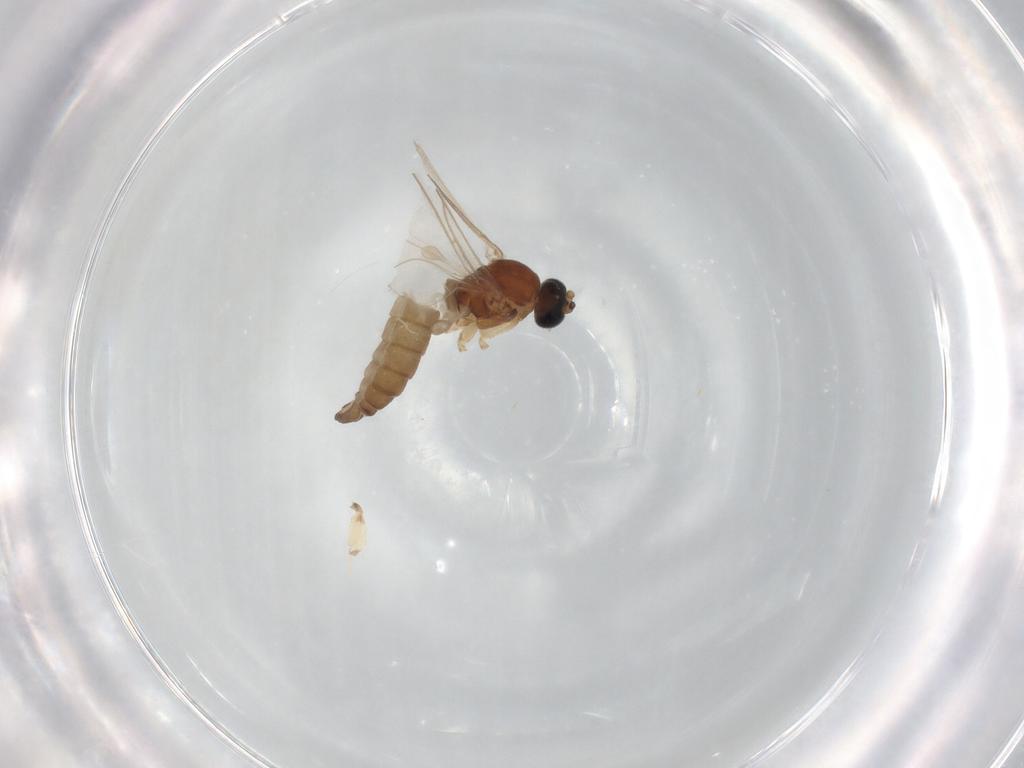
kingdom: Animalia
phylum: Arthropoda
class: Insecta
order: Diptera
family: Sciaridae
